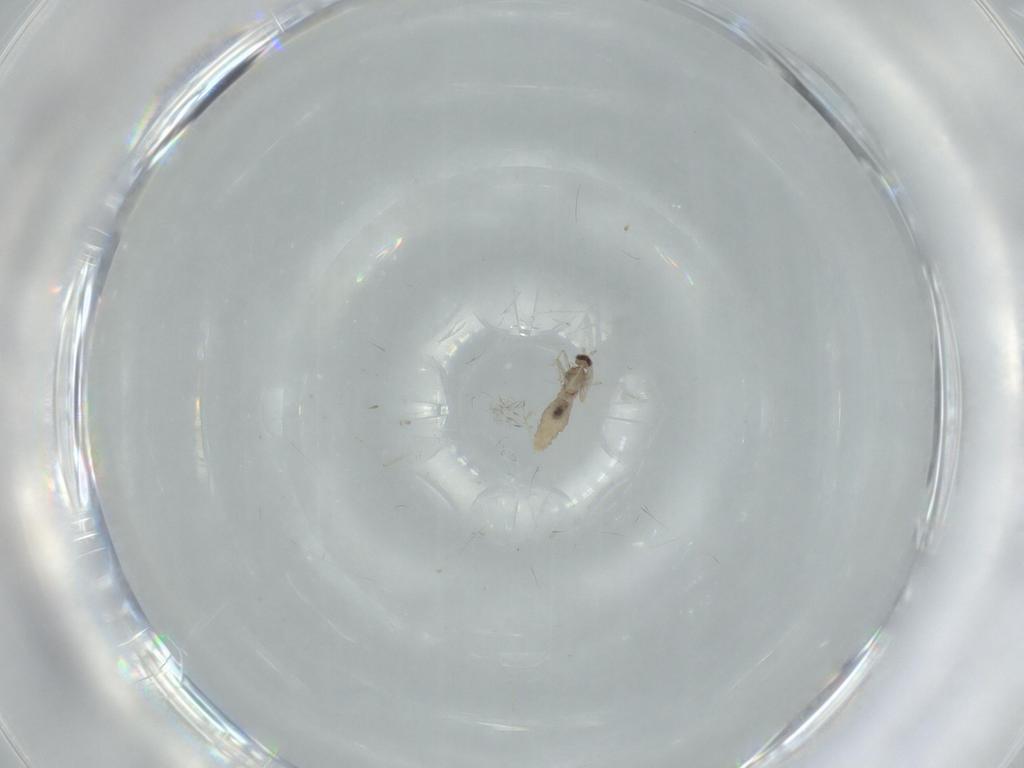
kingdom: Animalia
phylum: Arthropoda
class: Insecta
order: Diptera
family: Cecidomyiidae
